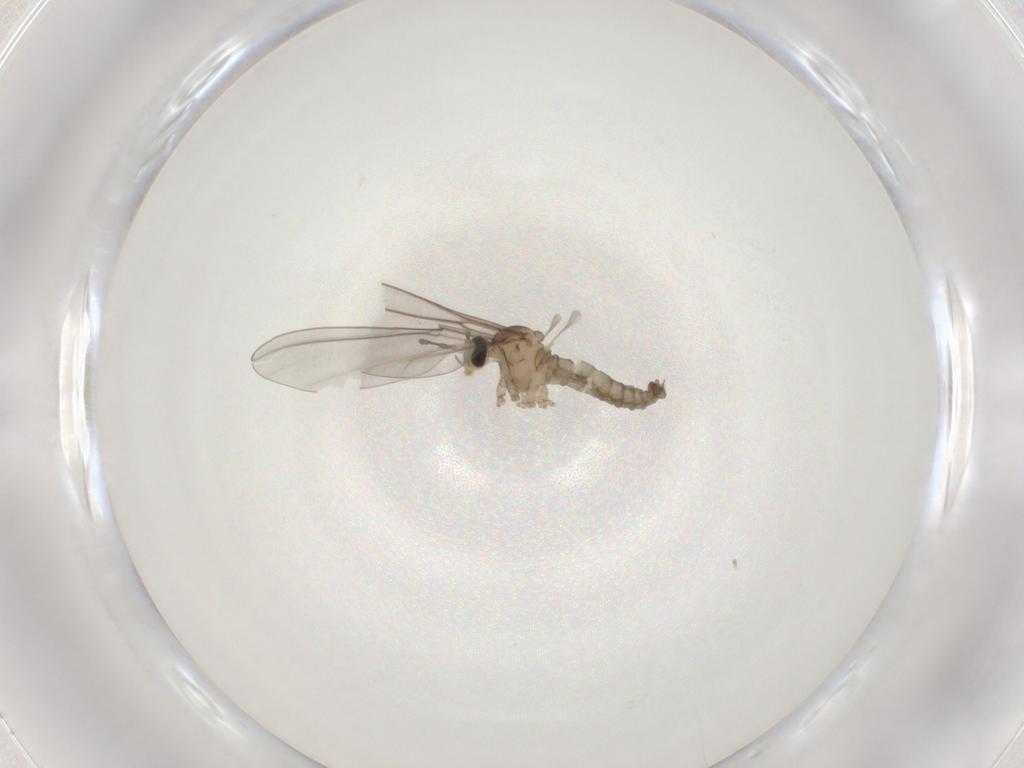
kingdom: Animalia
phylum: Arthropoda
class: Insecta
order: Diptera
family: Cecidomyiidae
